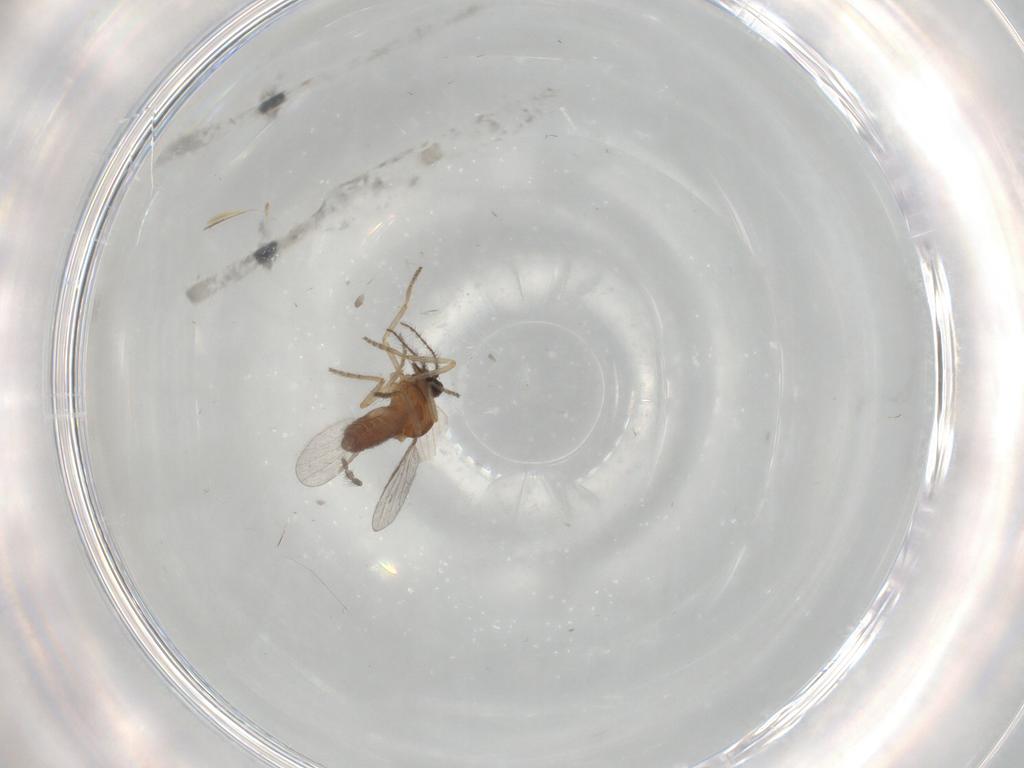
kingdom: Animalia
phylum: Arthropoda
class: Insecta
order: Diptera
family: Ceratopogonidae
